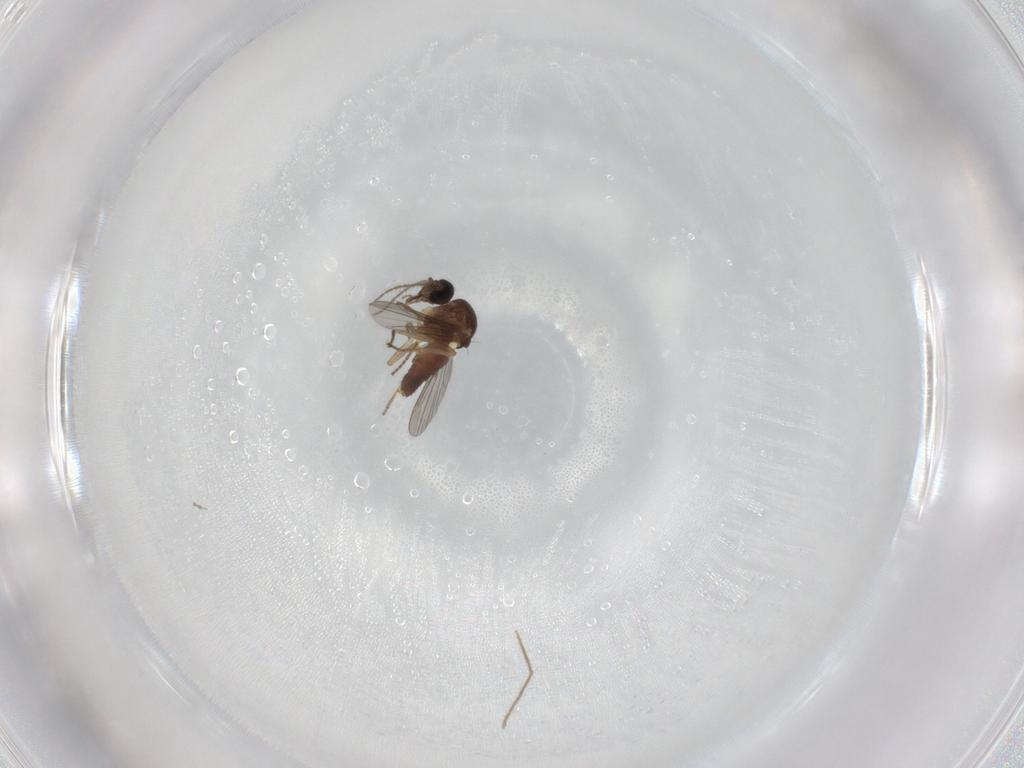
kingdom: Animalia
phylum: Arthropoda
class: Insecta
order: Diptera
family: Ceratopogonidae
